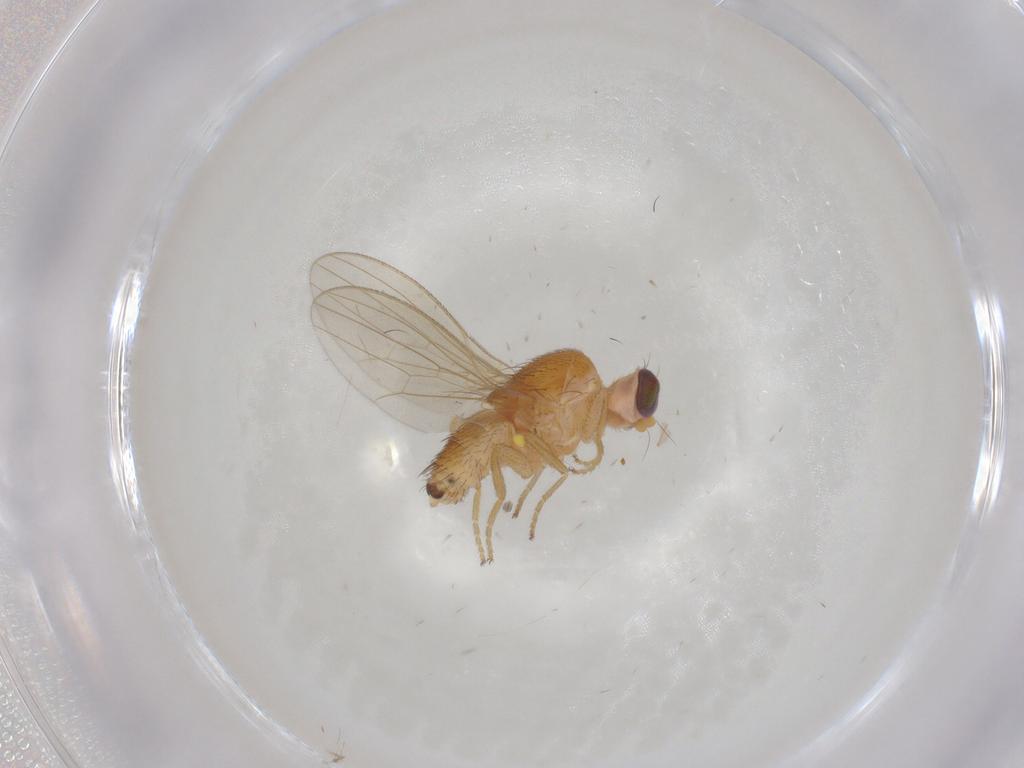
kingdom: Animalia
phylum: Arthropoda
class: Insecta
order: Diptera
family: Chyromyidae
